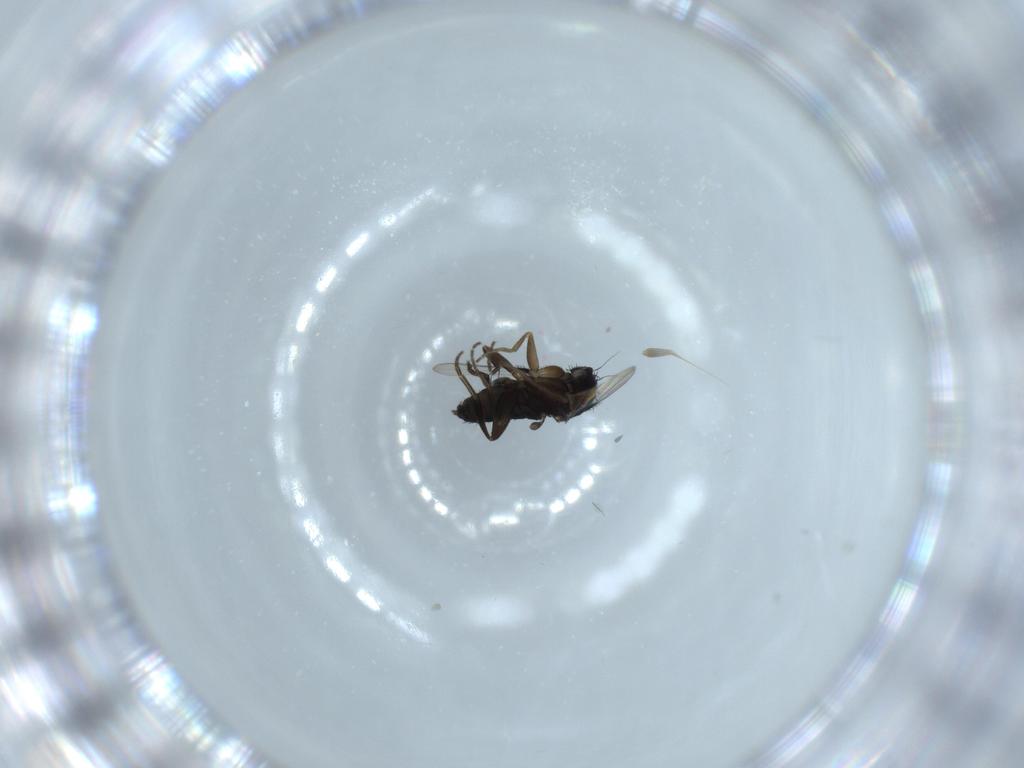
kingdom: Animalia
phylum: Arthropoda
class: Insecta
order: Diptera
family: Phoridae
